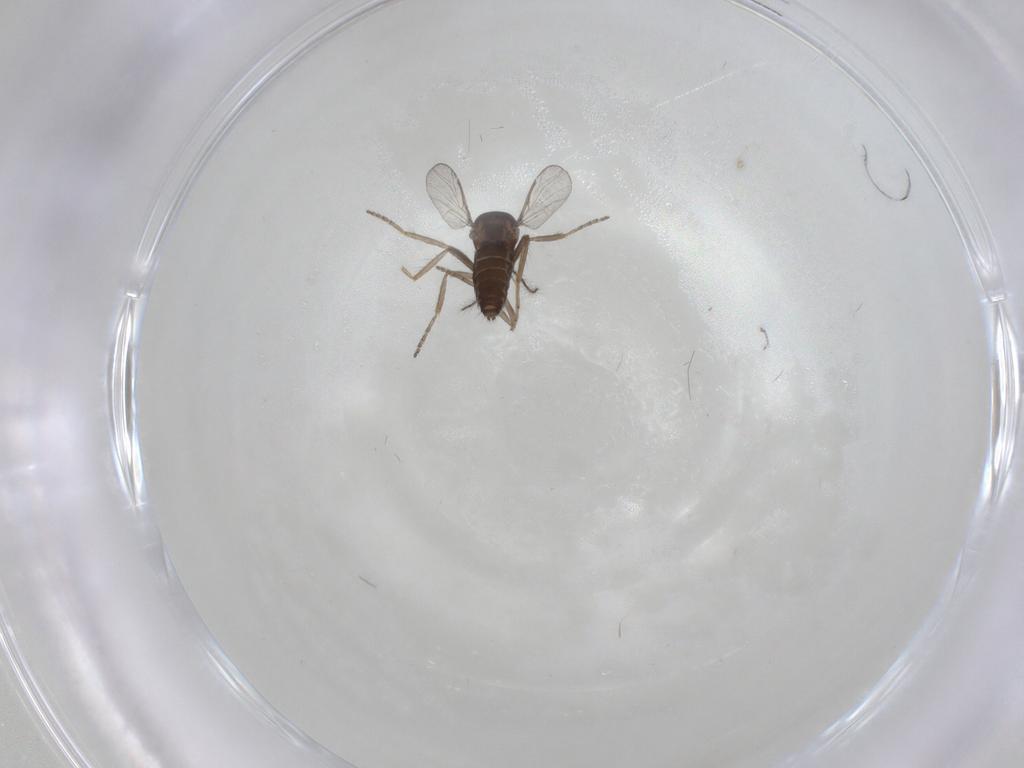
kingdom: Animalia
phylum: Arthropoda
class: Insecta
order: Diptera
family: Ceratopogonidae
